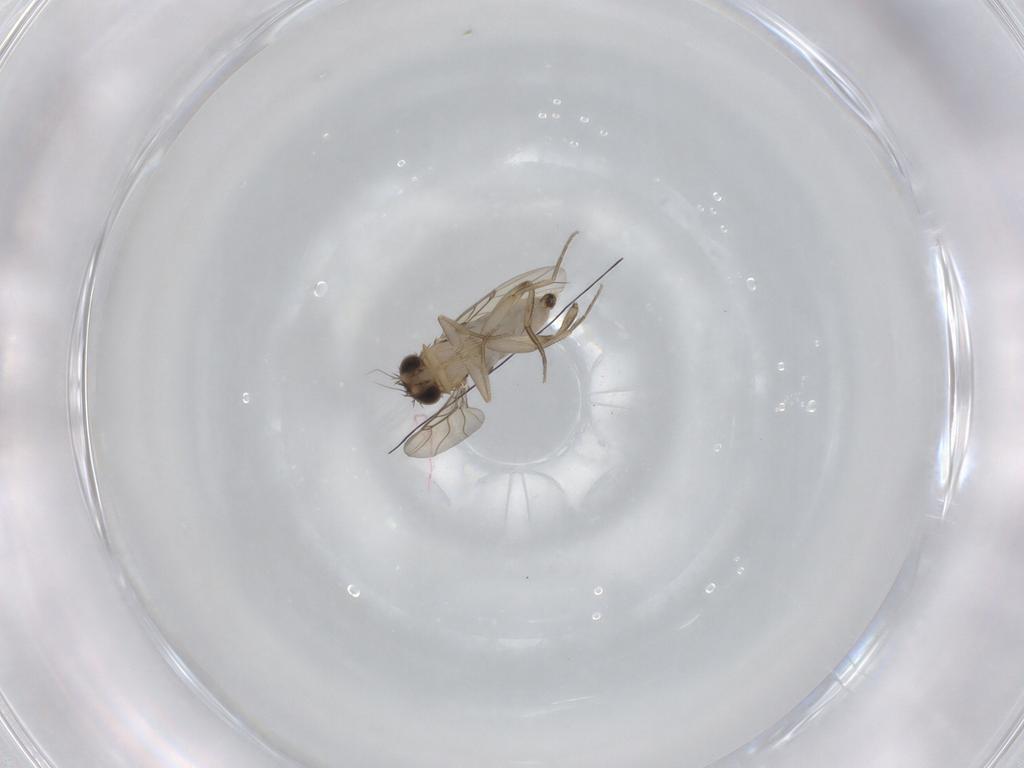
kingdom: Animalia
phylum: Arthropoda
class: Insecta
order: Diptera
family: Phoridae
